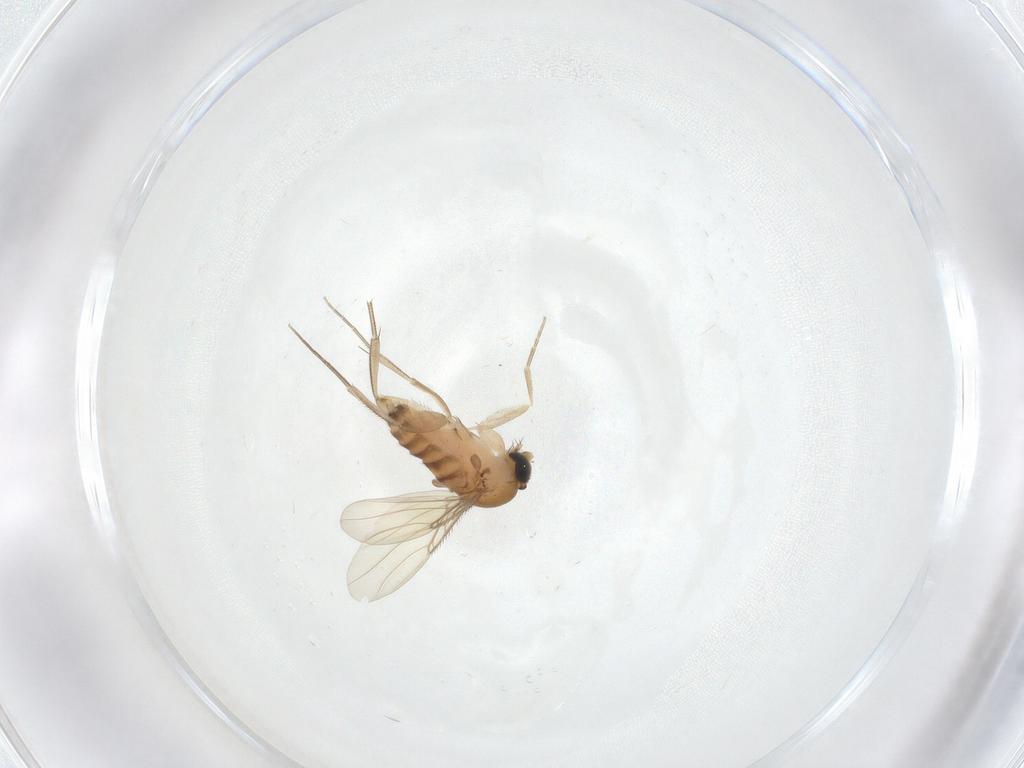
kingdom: Animalia
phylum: Arthropoda
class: Insecta
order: Diptera
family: Phoridae
